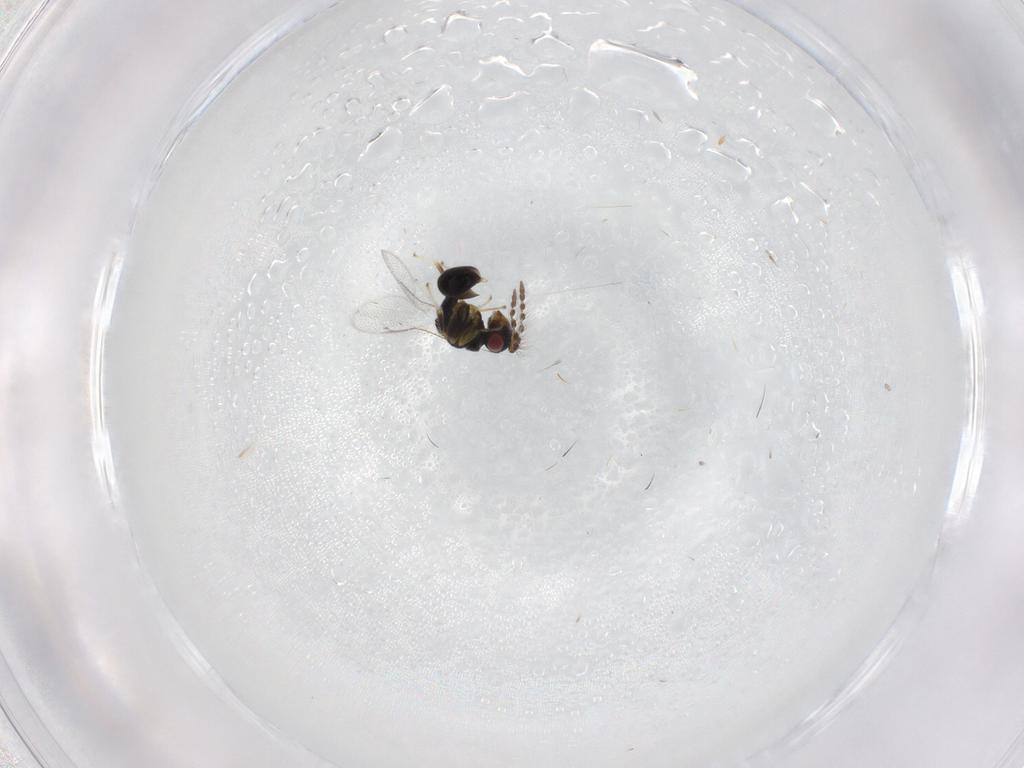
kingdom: Animalia
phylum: Arthropoda
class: Insecta
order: Hymenoptera
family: Eurytomidae
